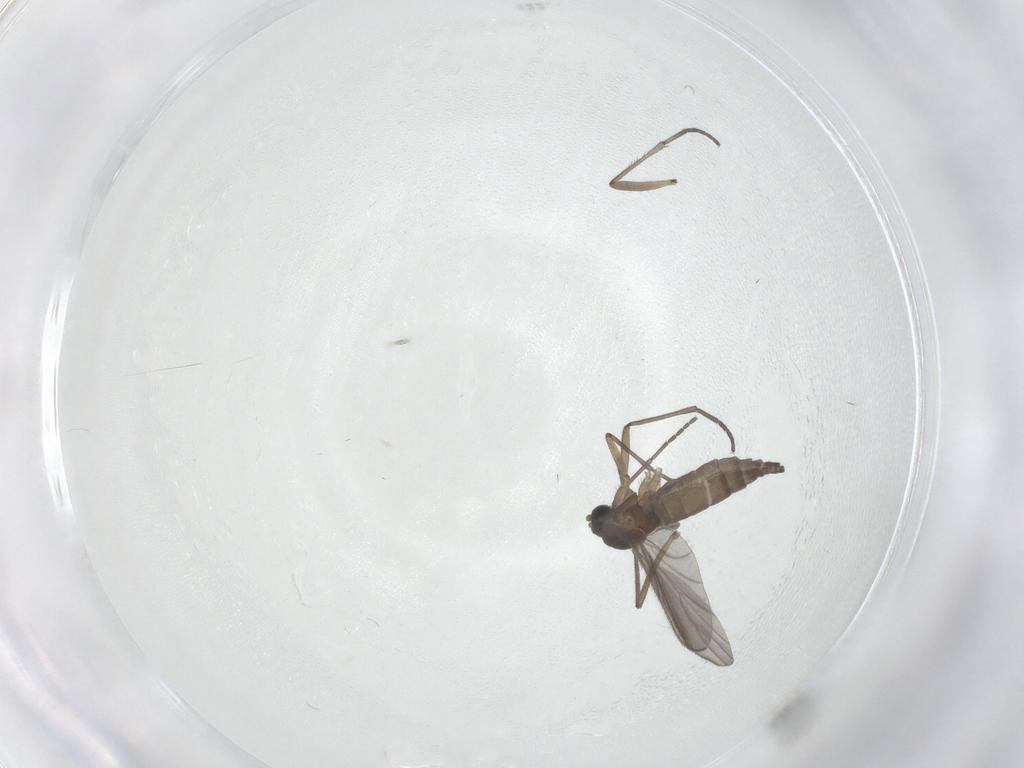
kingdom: Animalia
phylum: Arthropoda
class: Insecta
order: Diptera
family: Sciaridae
